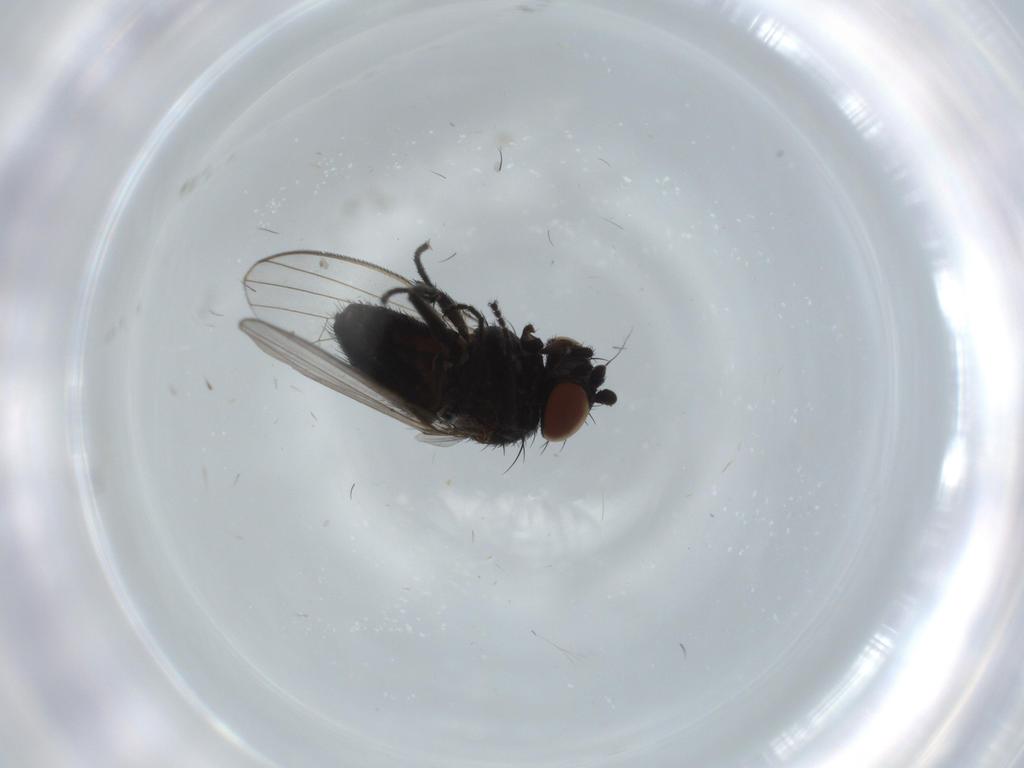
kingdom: Animalia
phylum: Arthropoda
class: Insecta
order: Diptera
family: Milichiidae
